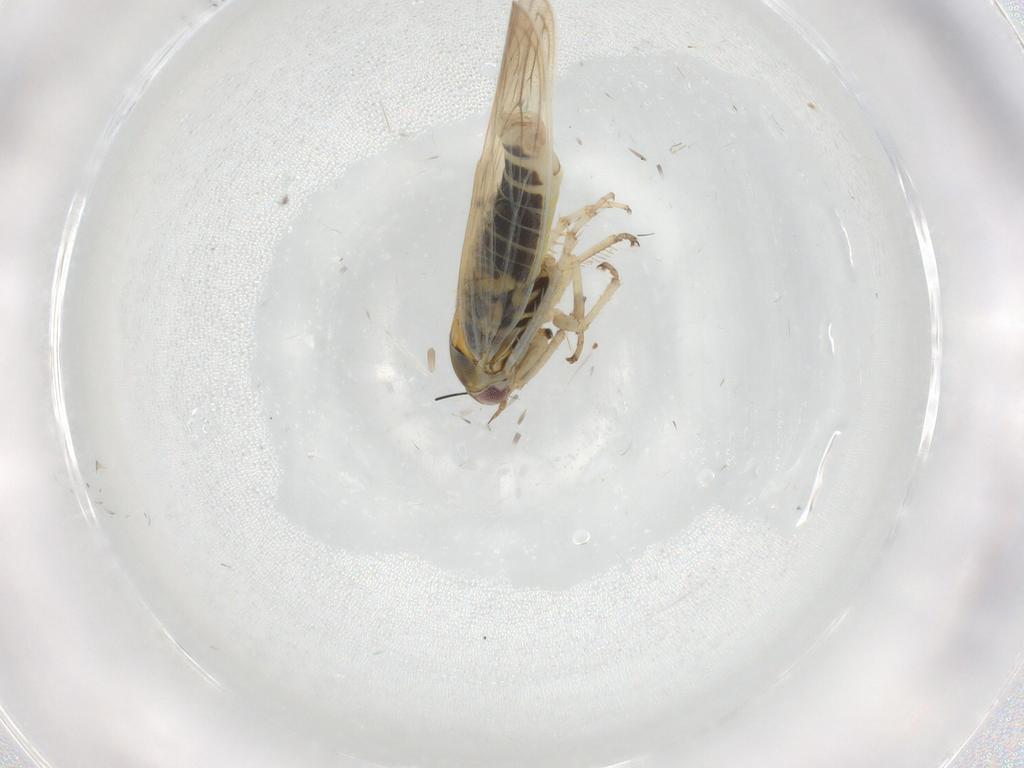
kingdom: Animalia
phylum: Arthropoda
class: Insecta
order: Hemiptera
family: Cicadellidae
